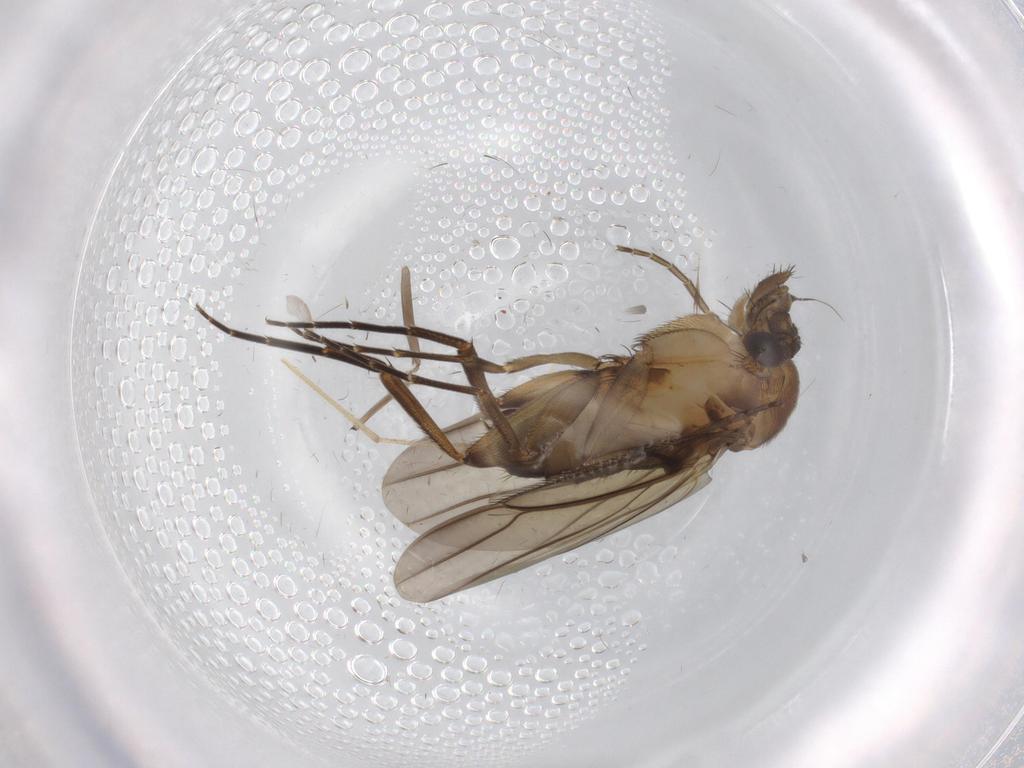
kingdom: Animalia
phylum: Arthropoda
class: Insecta
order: Diptera
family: Phoridae
